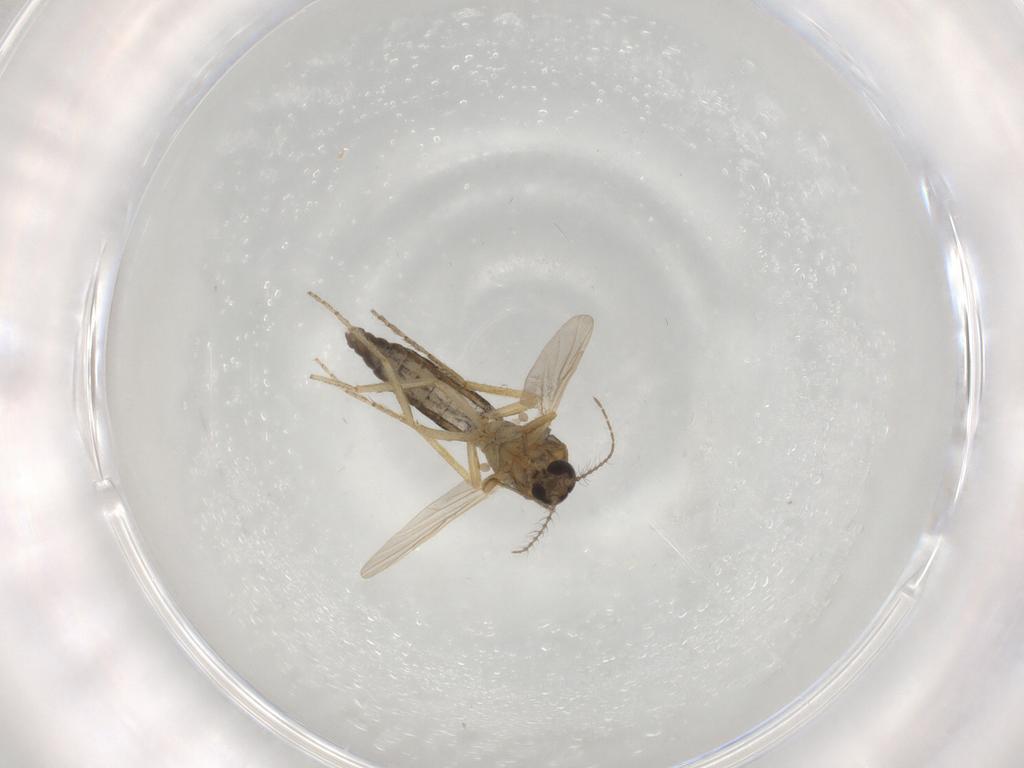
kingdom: Animalia
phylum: Arthropoda
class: Insecta
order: Diptera
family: Ceratopogonidae
